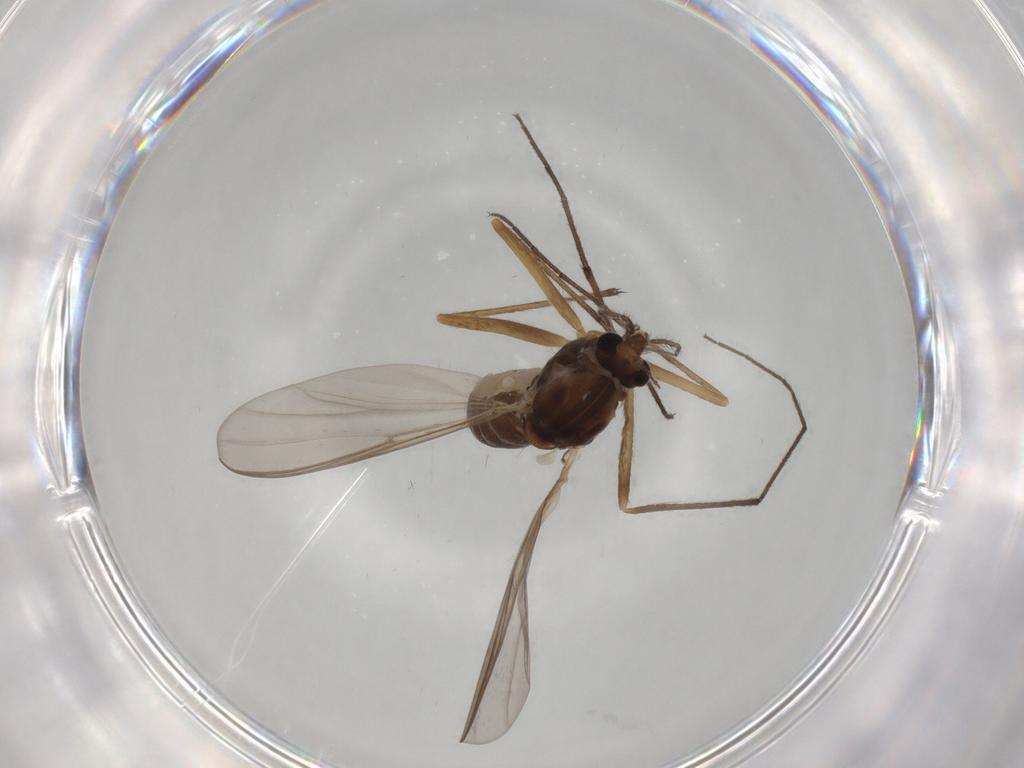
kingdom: Animalia
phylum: Arthropoda
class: Insecta
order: Diptera
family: Chironomidae
